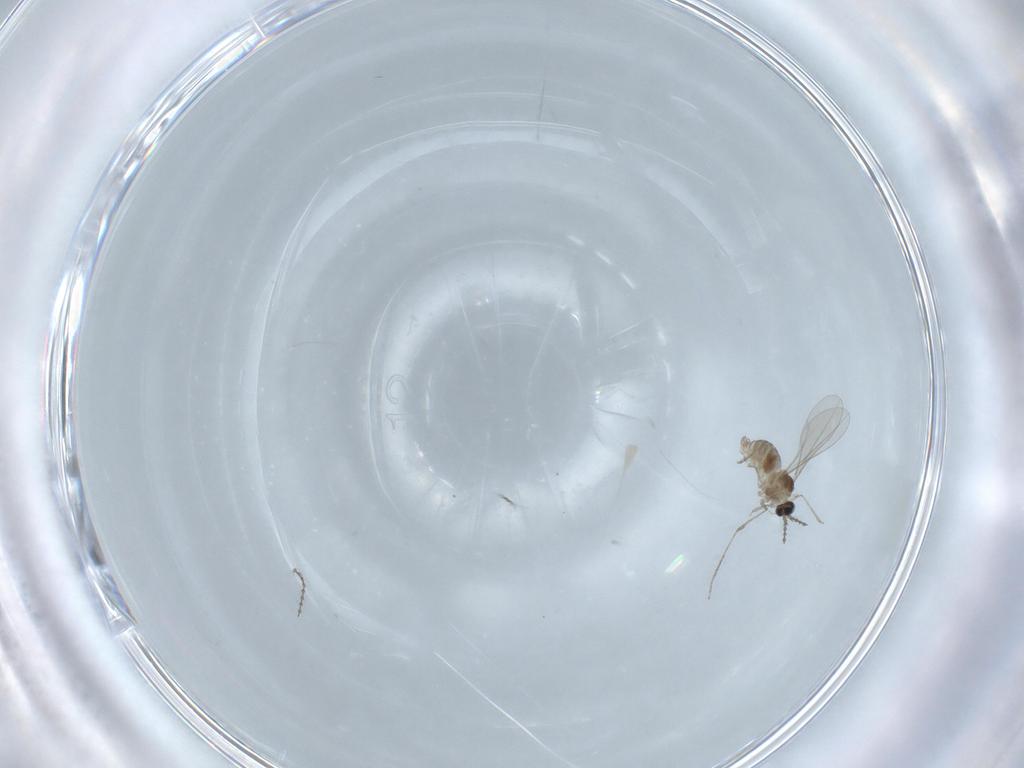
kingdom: Animalia
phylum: Arthropoda
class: Insecta
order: Diptera
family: Cecidomyiidae
